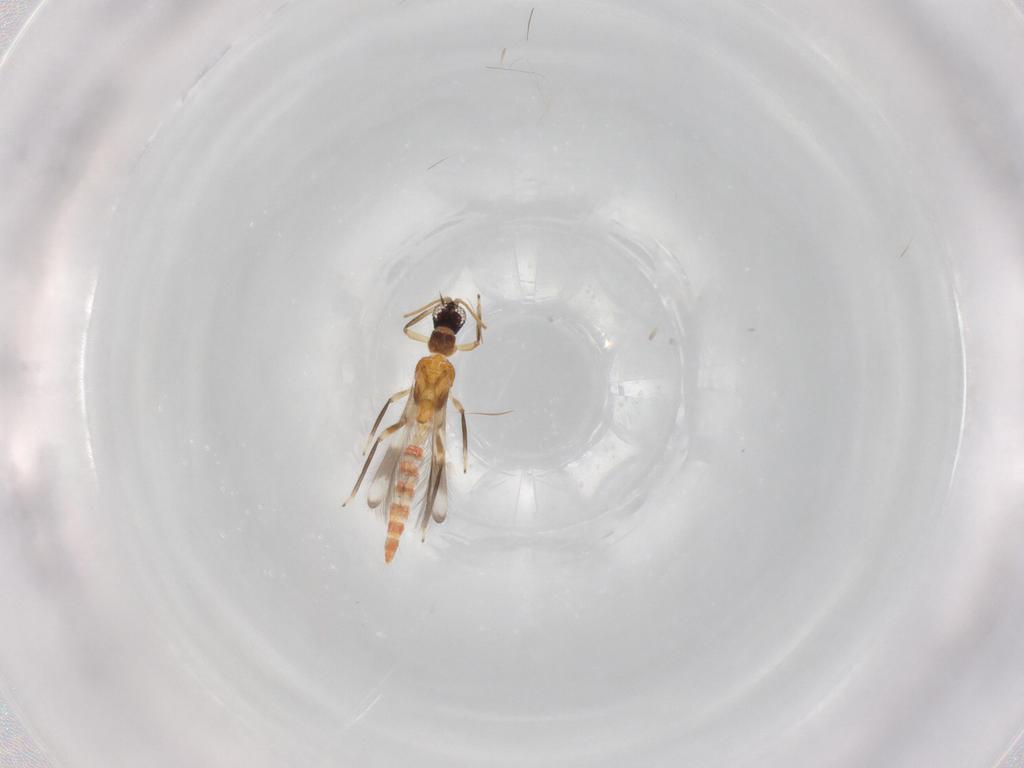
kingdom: Animalia
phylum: Arthropoda
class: Insecta
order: Thysanoptera
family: Aeolothripidae
